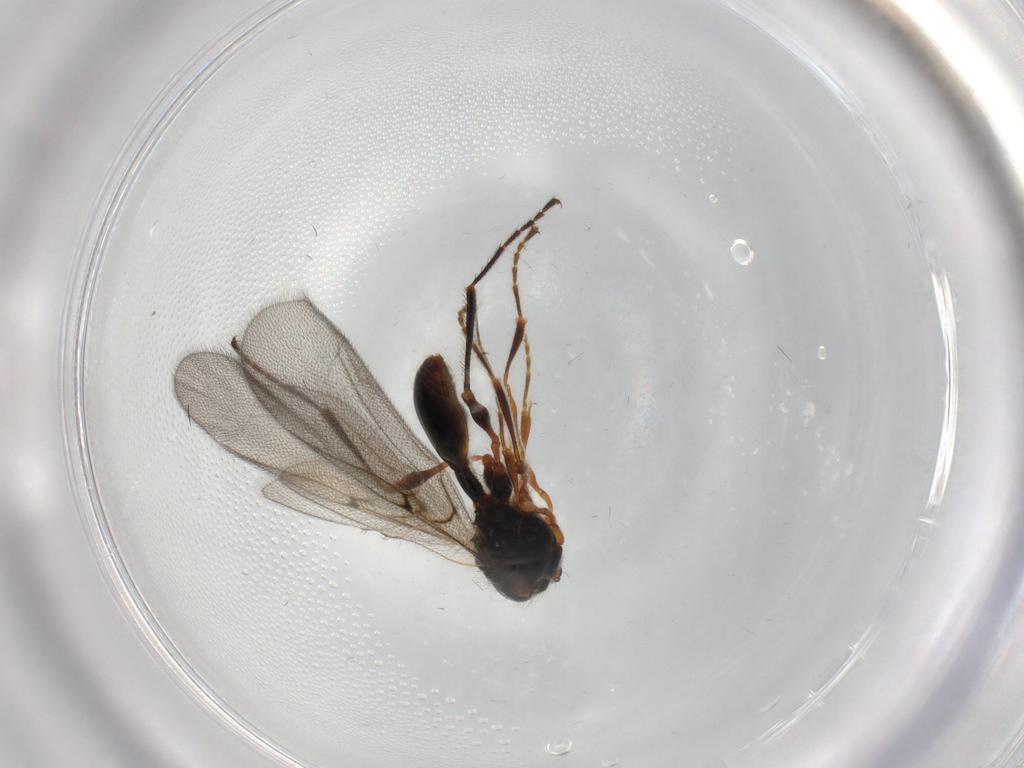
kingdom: Animalia
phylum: Arthropoda
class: Insecta
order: Hymenoptera
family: Diapriidae
